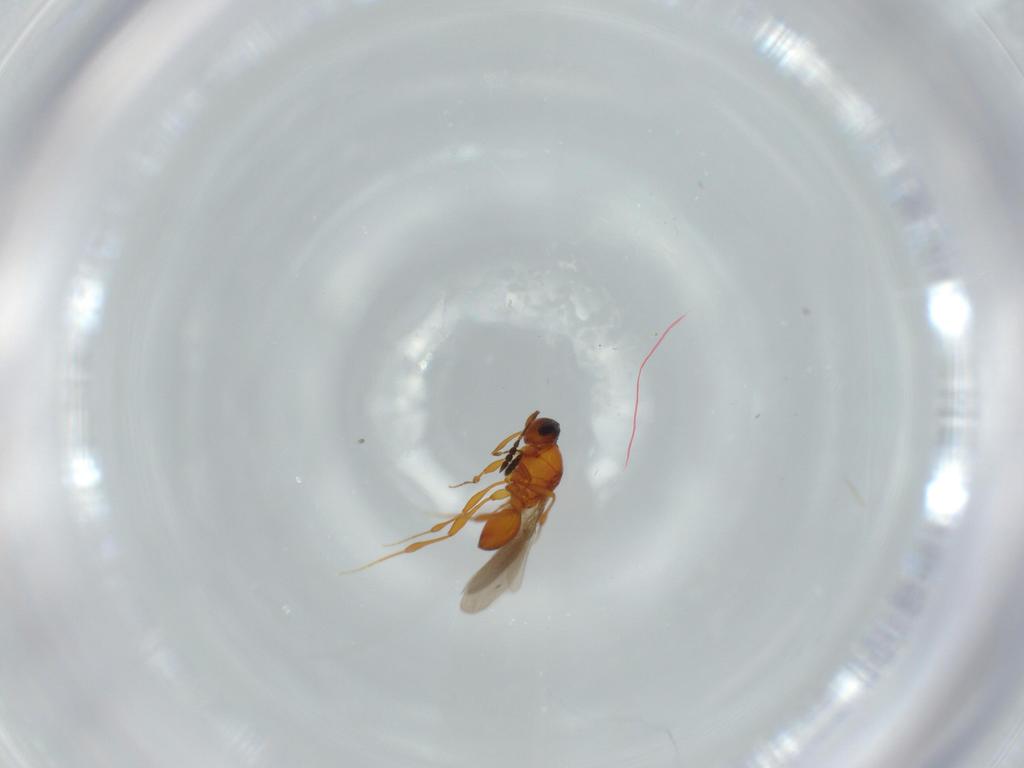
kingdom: Animalia
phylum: Arthropoda
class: Insecta
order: Hymenoptera
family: Platygastridae
